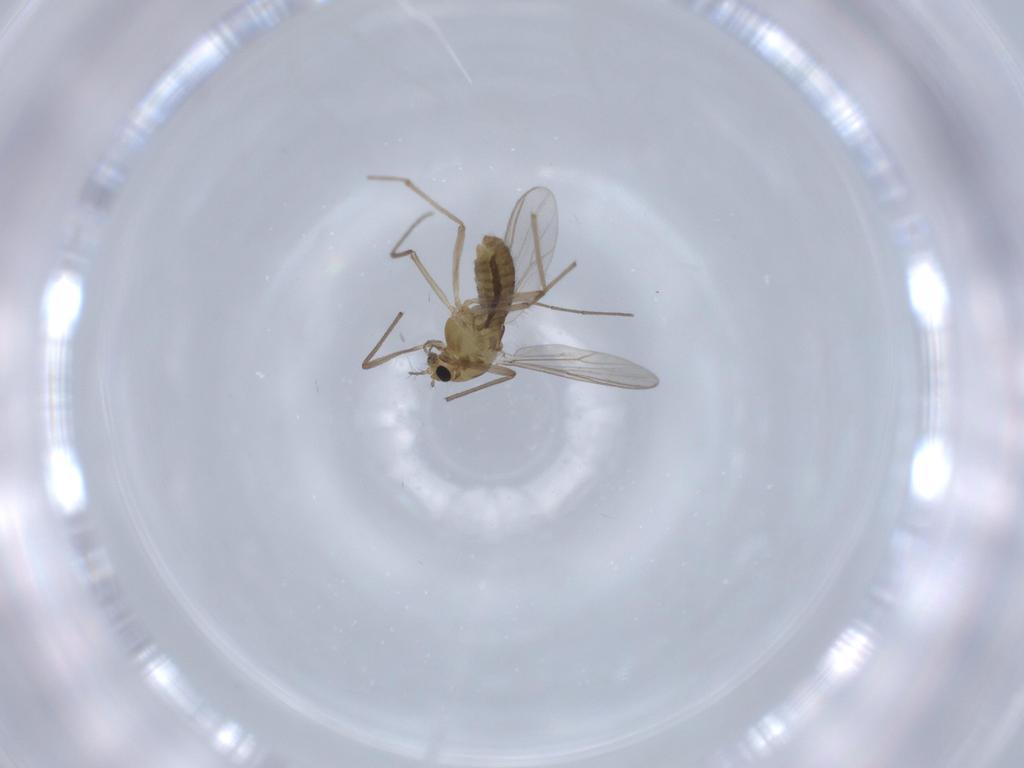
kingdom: Animalia
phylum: Arthropoda
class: Insecta
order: Diptera
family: Chironomidae
